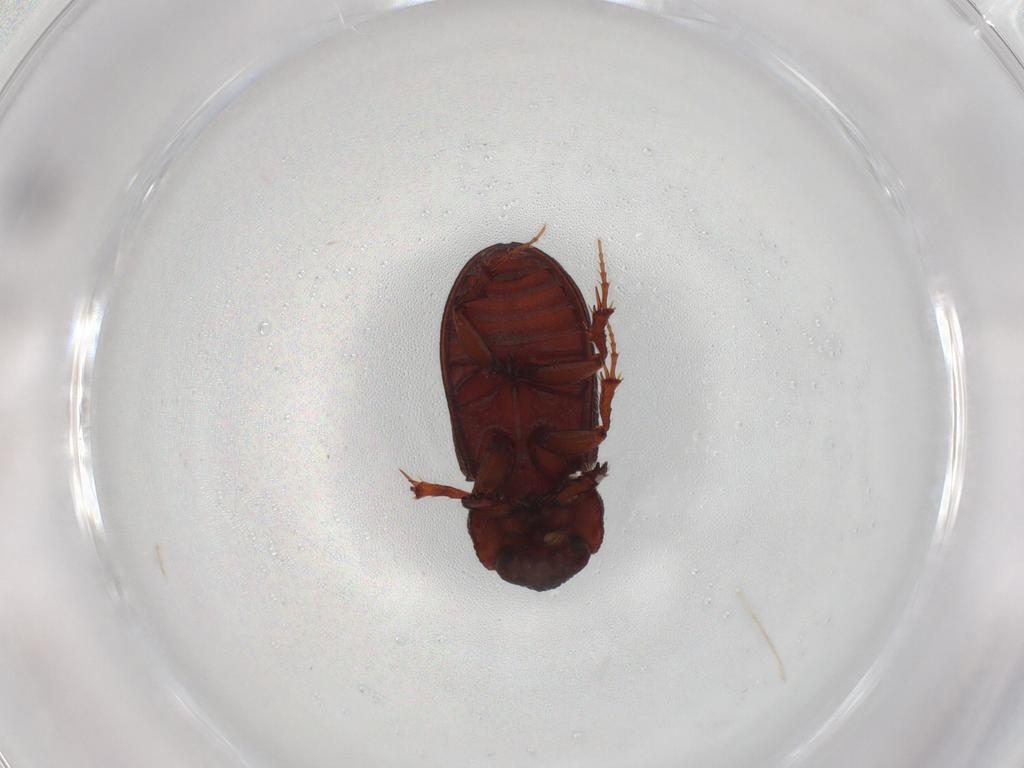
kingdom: Animalia
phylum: Arthropoda
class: Insecta
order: Coleoptera
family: Scarabaeidae
